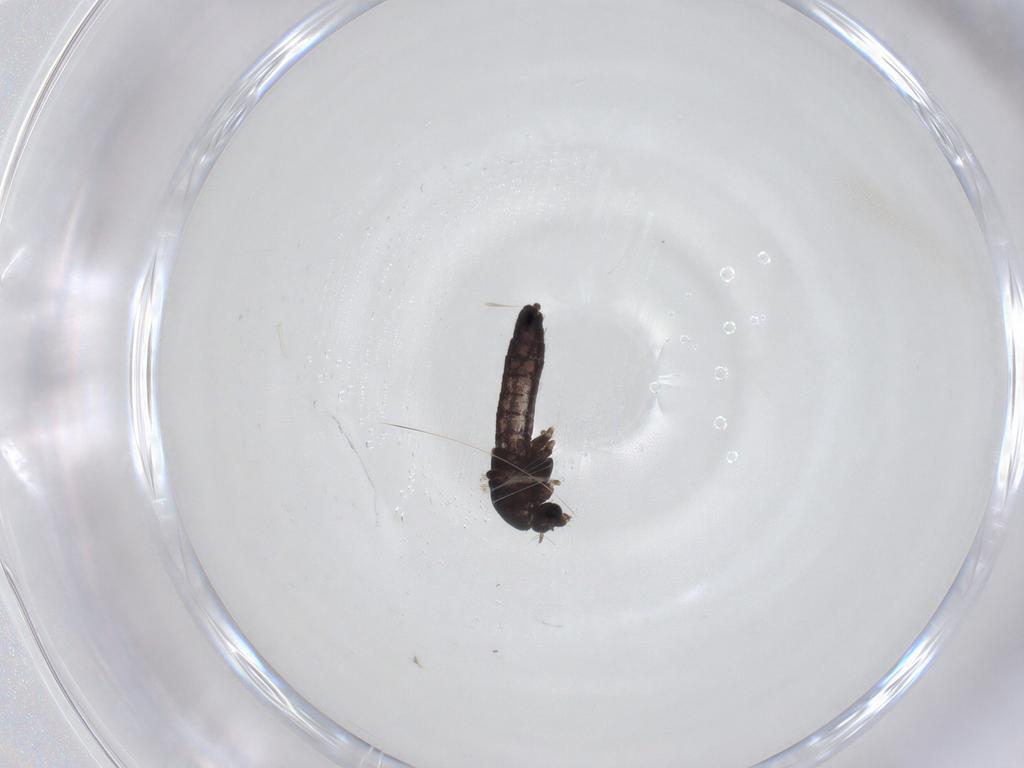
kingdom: Animalia
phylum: Arthropoda
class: Insecta
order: Diptera
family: Chironomidae
